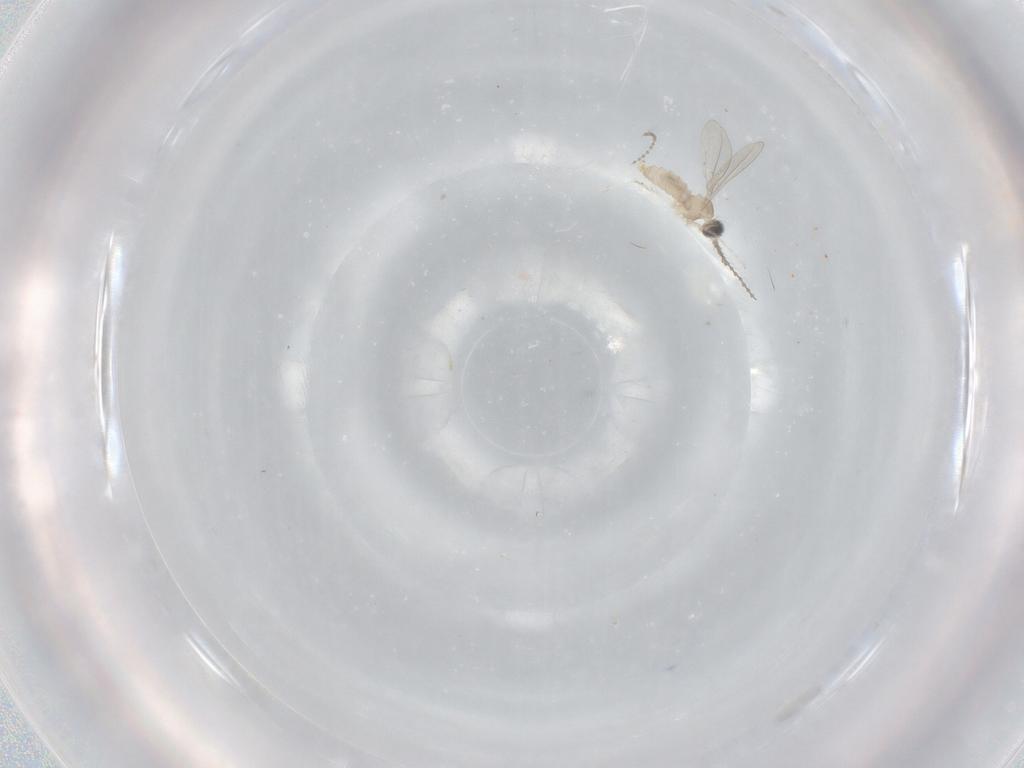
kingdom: Animalia
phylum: Arthropoda
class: Insecta
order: Diptera
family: Cecidomyiidae
